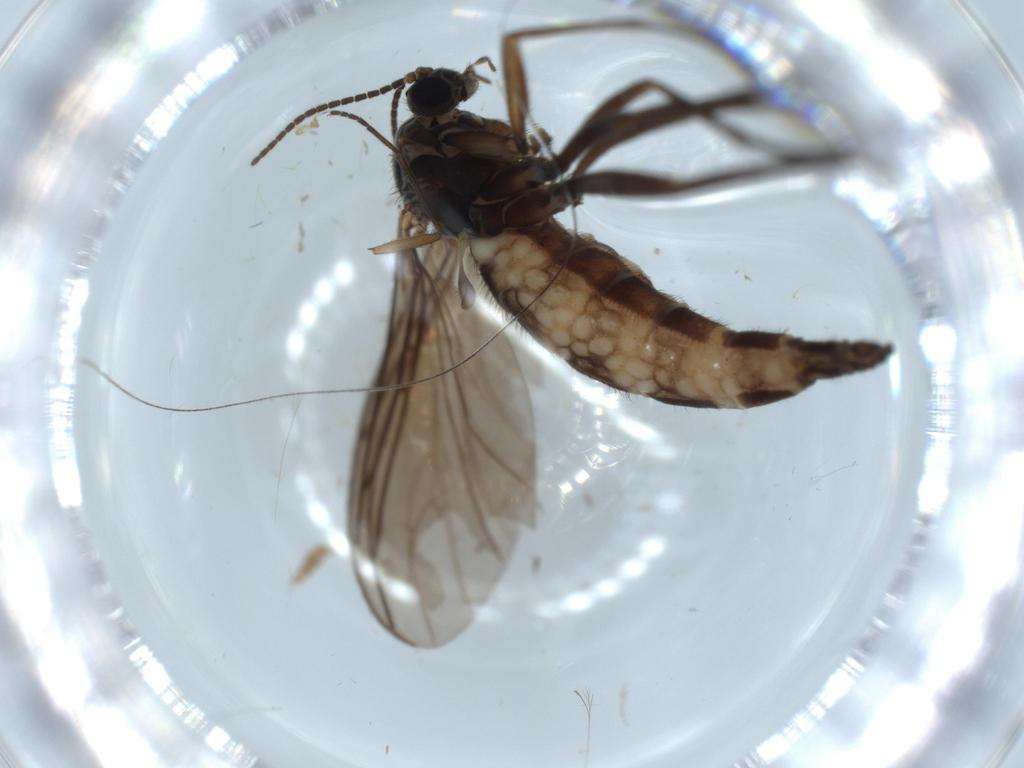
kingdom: Animalia
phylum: Arthropoda
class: Insecta
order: Diptera
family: Sciaridae
